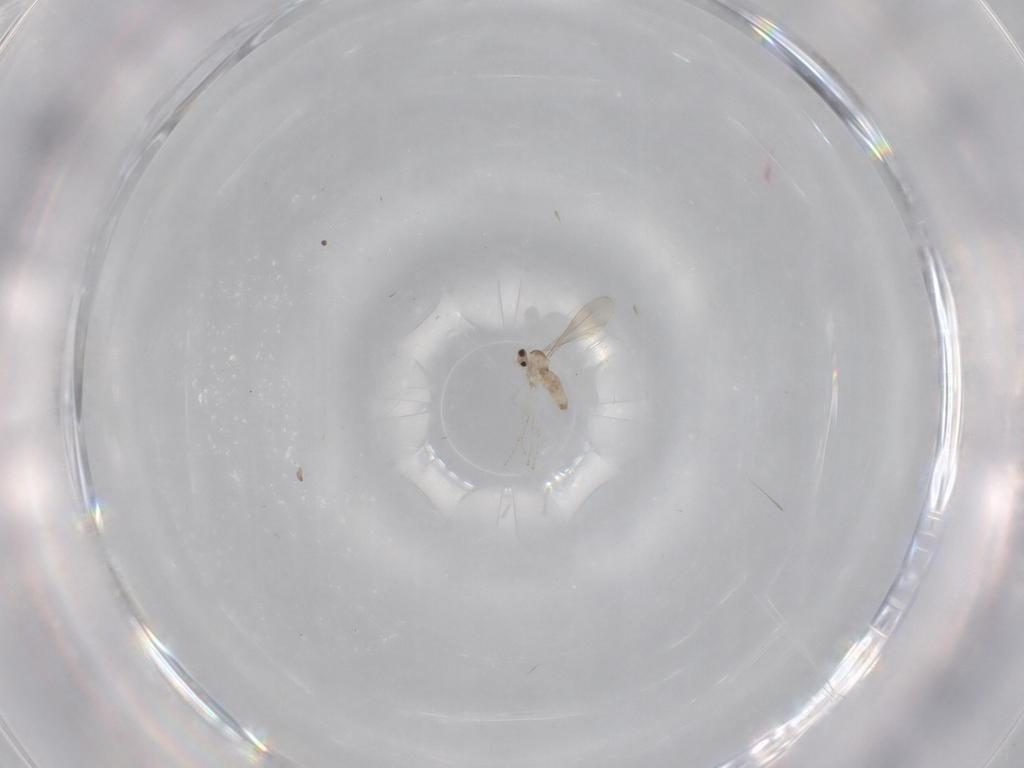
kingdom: Animalia
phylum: Arthropoda
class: Insecta
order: Diptera
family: Cecidomyiidae
